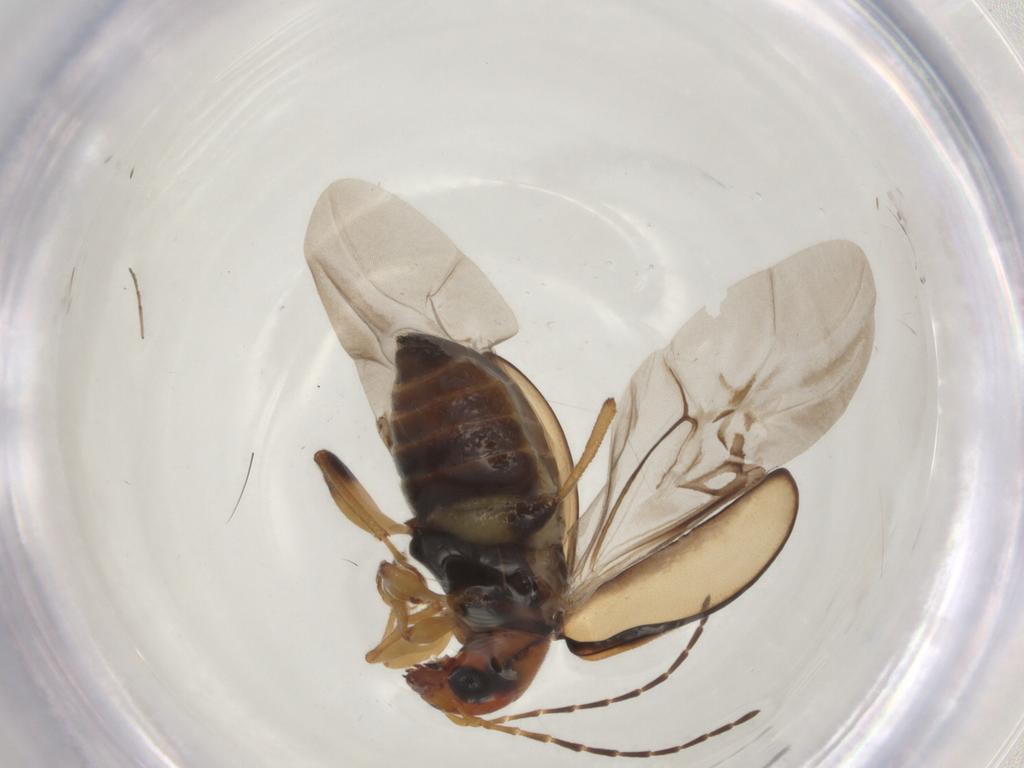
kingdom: Animalia
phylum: Arthropoda
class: Insecta
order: Coleoptera
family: Chrysomelidae
